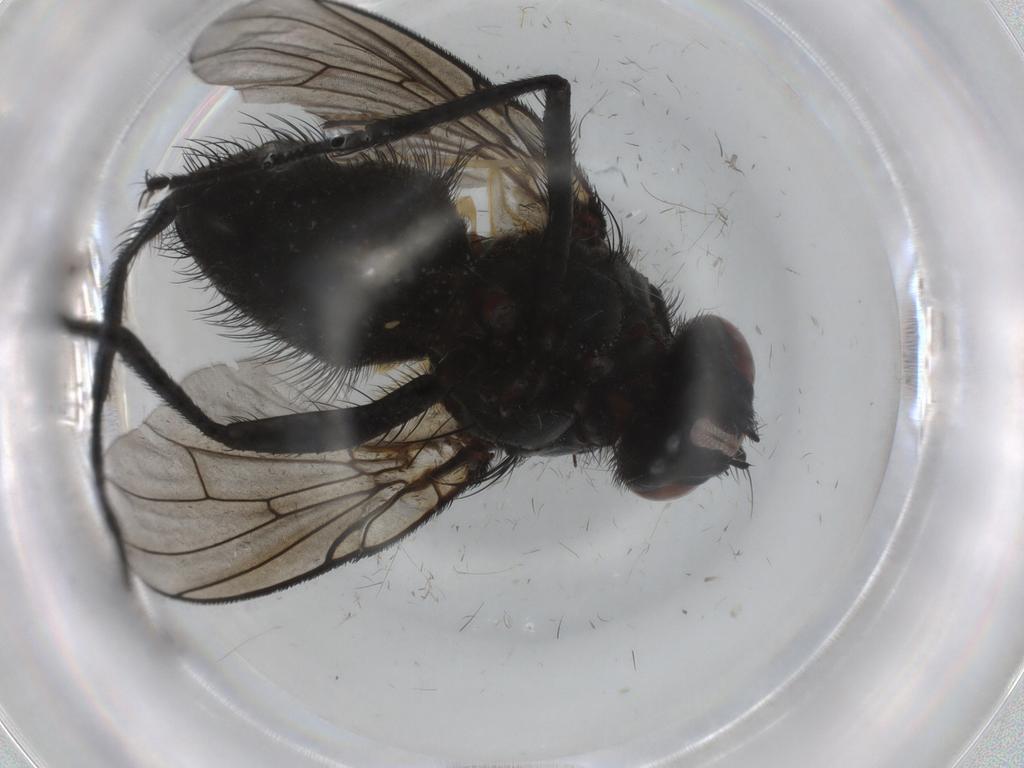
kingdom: Animalia
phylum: Arthropoda
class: Insecta
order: Diptera
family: Muscidae
